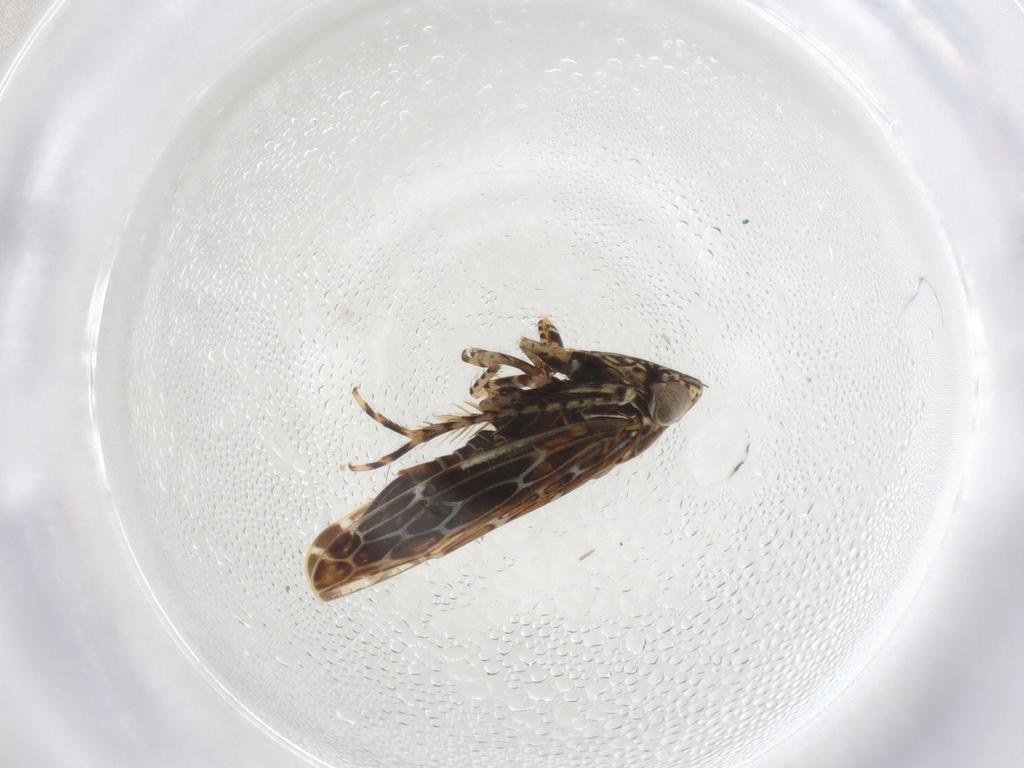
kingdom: Animalia
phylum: Arthropoda
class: Insecta
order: Hemiptera
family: Cicadellidae
